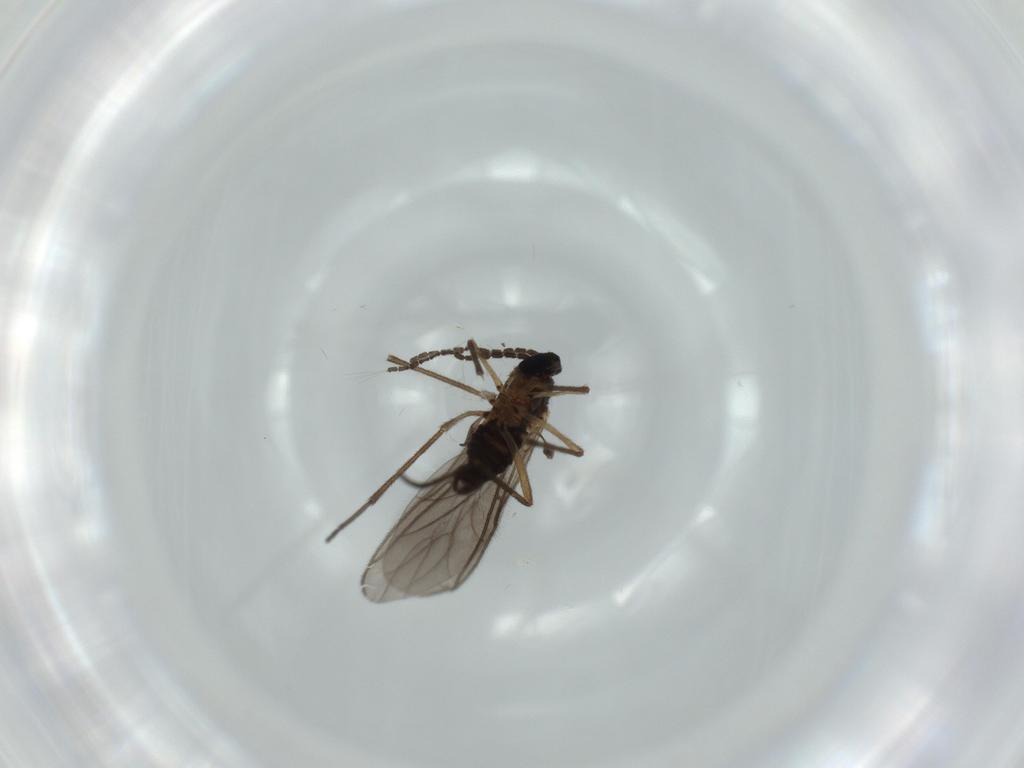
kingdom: Animalia
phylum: Arthropoda
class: Insecta
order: Diptera
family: Sciaridae
